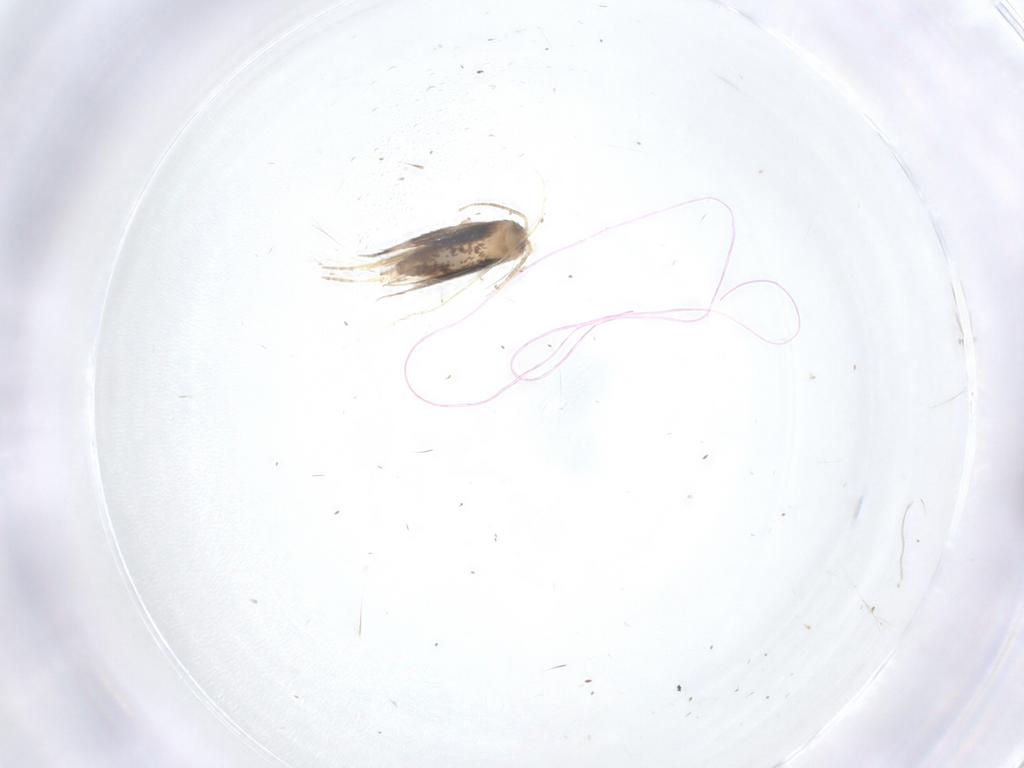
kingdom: Animalia
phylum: Arthropoda
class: Insecta
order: Lepidoptera
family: Nepticulidae
